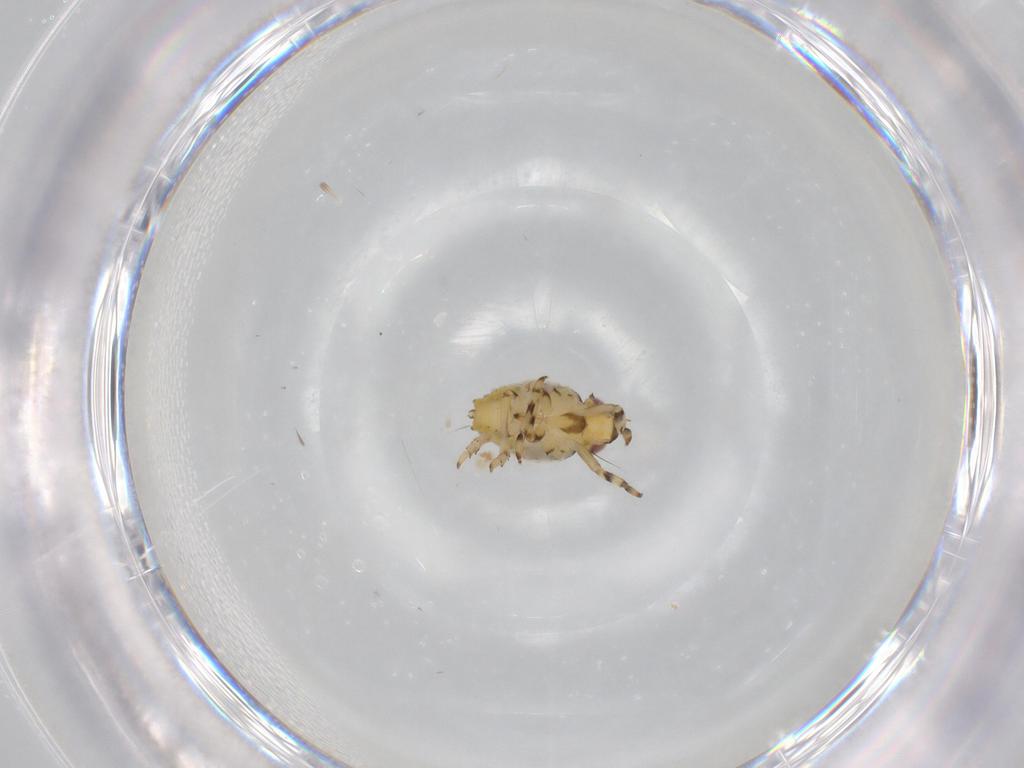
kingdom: Animalia
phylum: Arthropoda
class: Insecta
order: Hemiptera
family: Issidae
